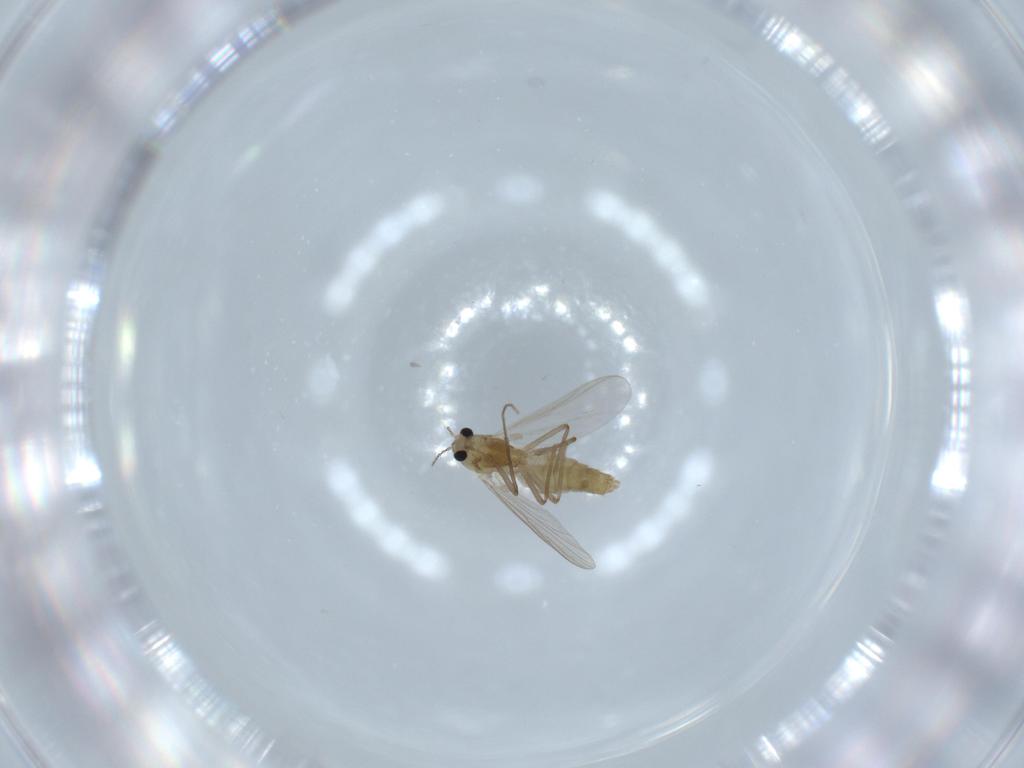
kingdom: Animalia
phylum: Arthropoda
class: Insecta
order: Diptera
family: Chironomidae
